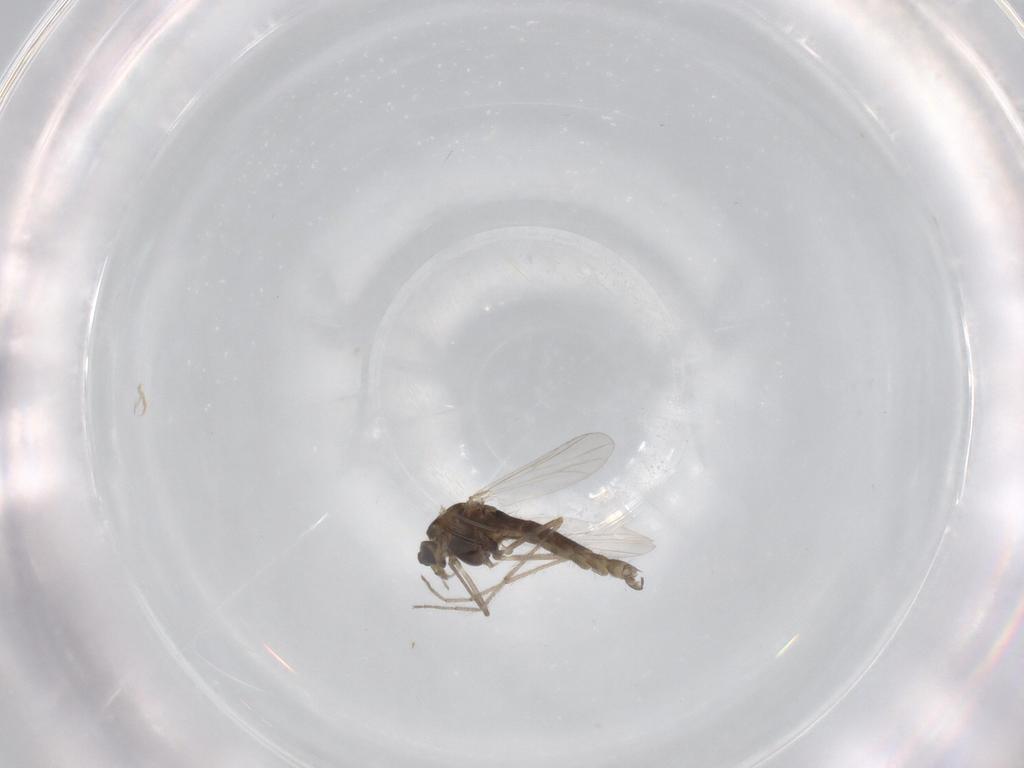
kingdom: Animalia
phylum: Arthropoda
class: Insecta
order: Diptera
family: Chironomidae
